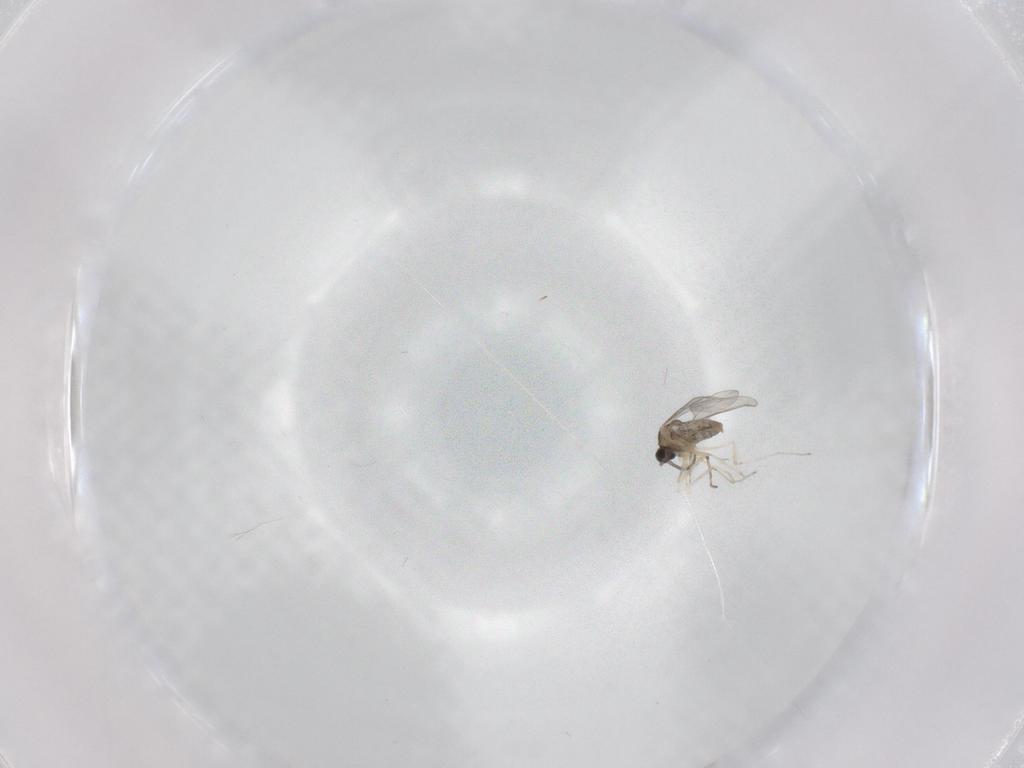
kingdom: Animalia
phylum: Arthropoda
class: Insecta
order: Diptera
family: Cecidomyiidae
